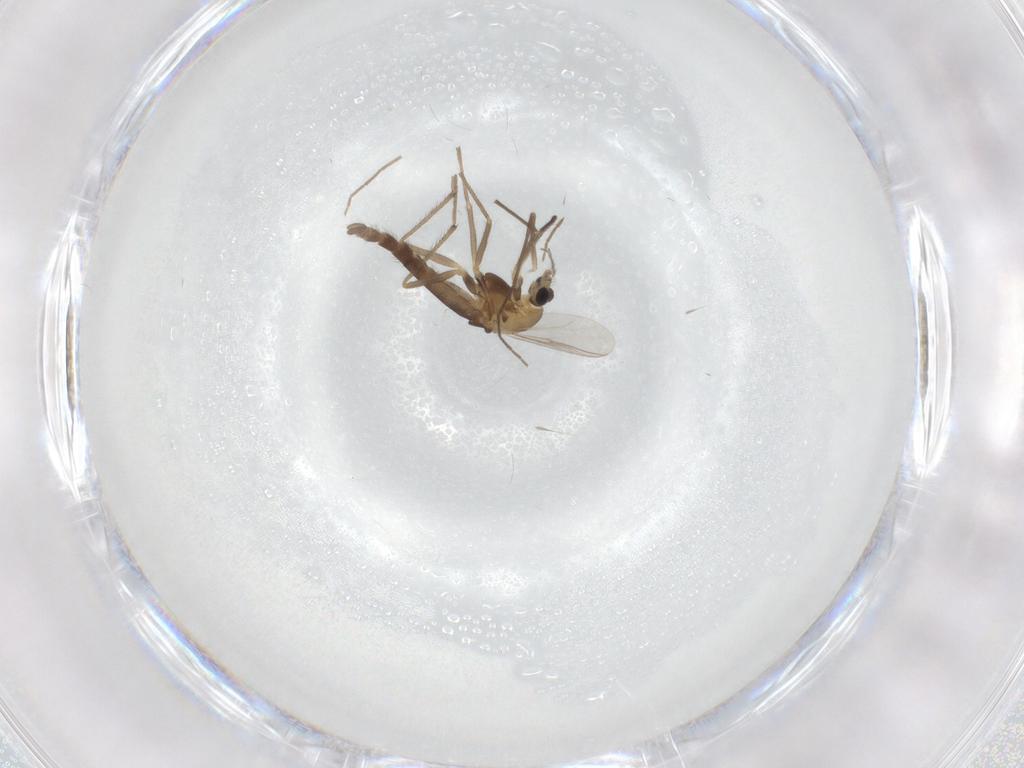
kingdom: Animalia
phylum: Arthropoda
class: Insecta
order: Diptera
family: Chironomidae
